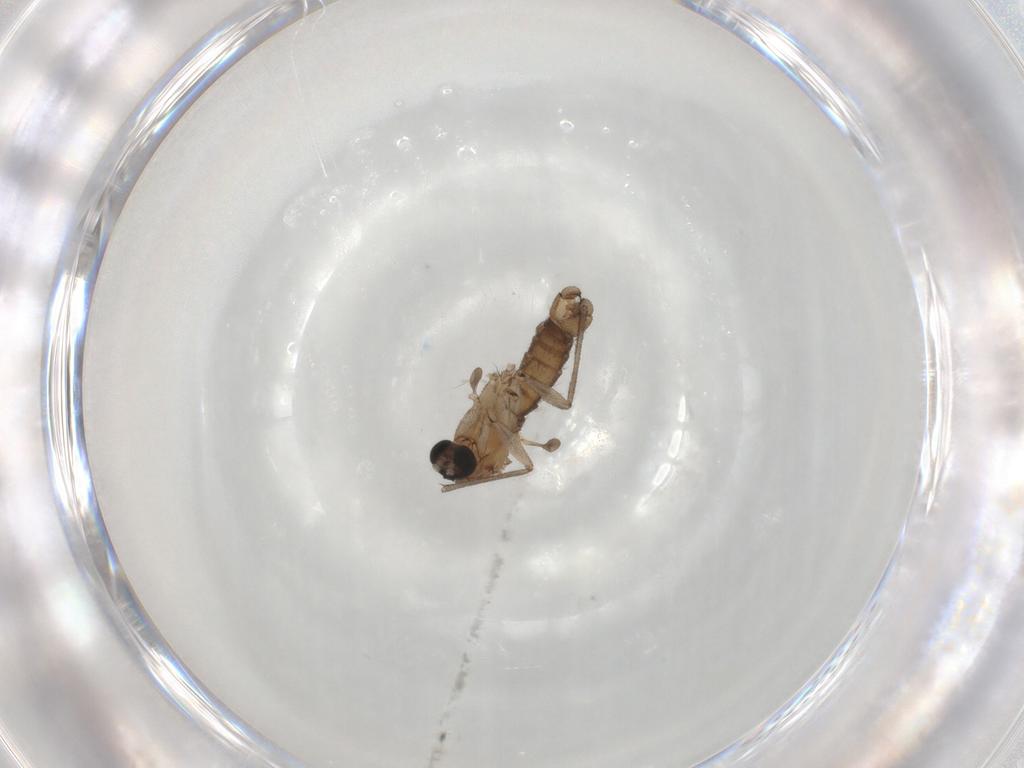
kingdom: Animalia
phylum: Arthropoda
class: Insecta
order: Diptera
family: Sciaridae
